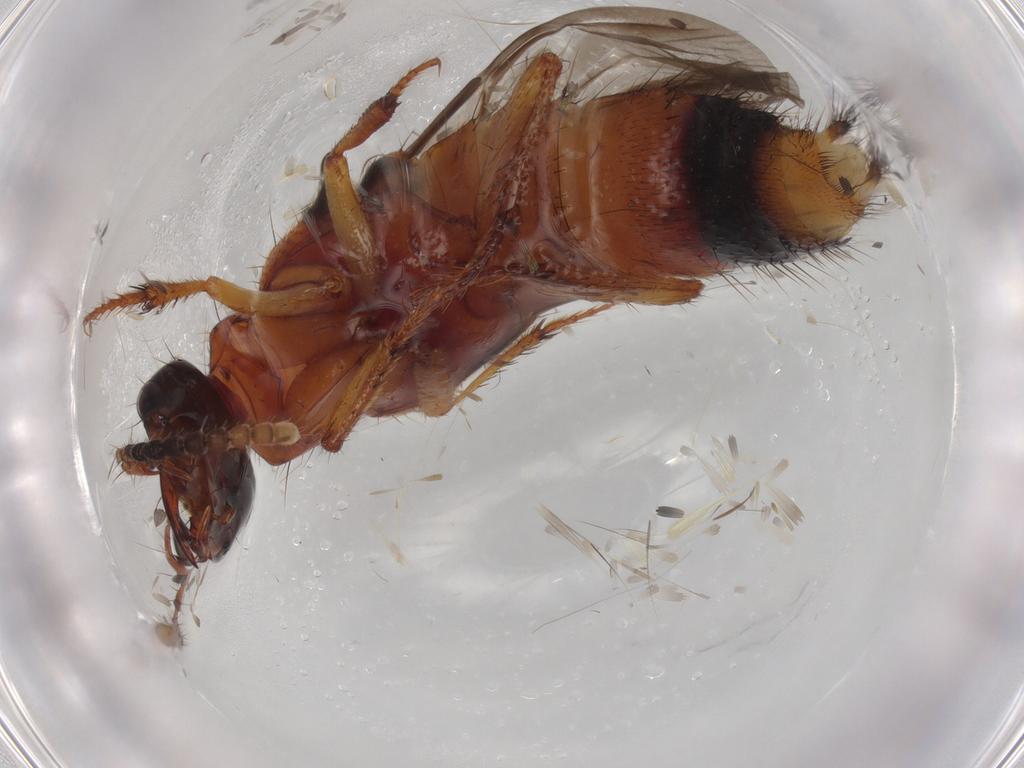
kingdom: Animalia
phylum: Arthropoda
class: Insecta
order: Coleoptera
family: Staphylinidae
